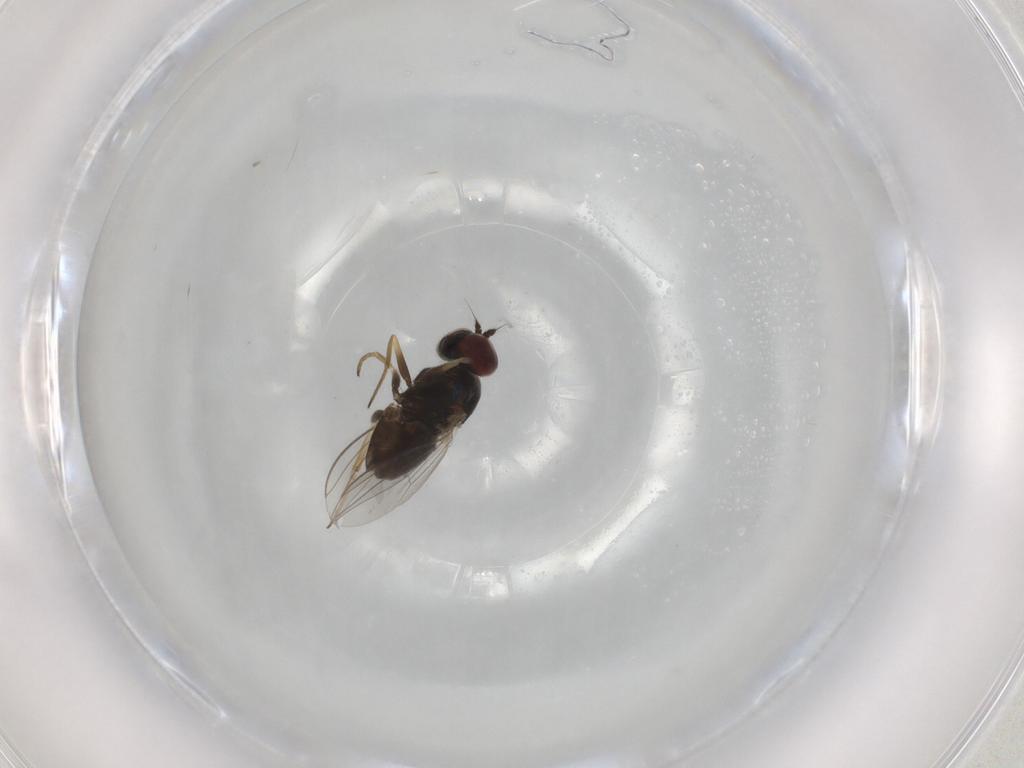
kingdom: Animalia
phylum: Arthropoda
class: Insecta
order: Diptera
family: Dolichopodidae
